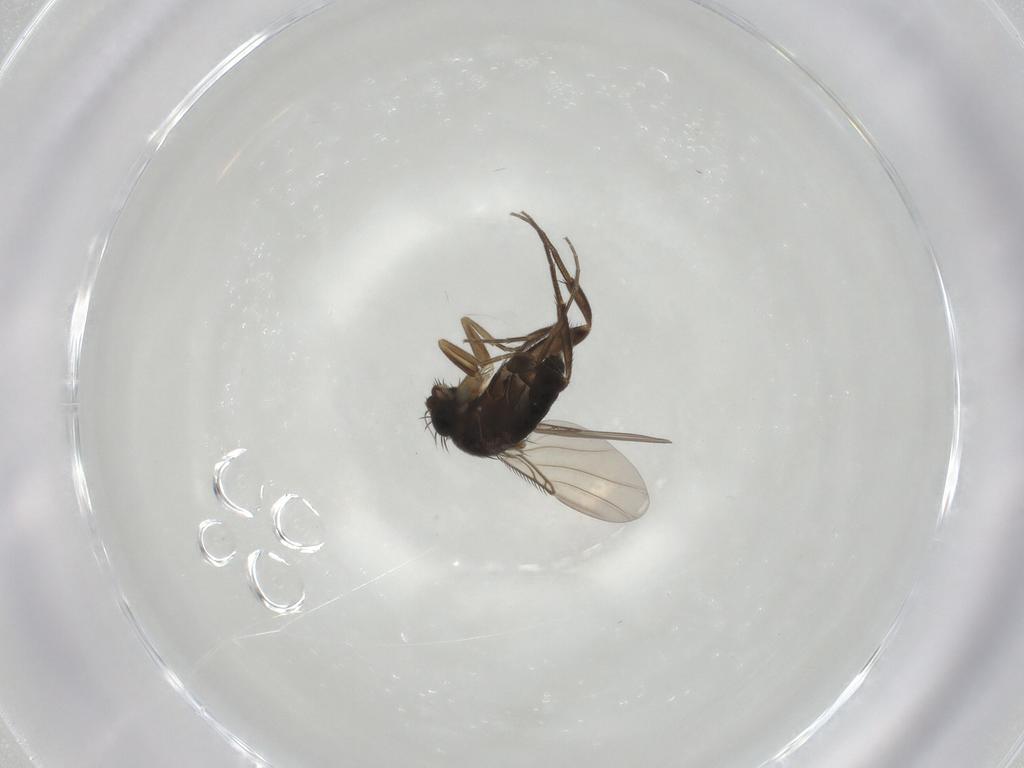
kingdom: Animalia
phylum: Arthropoda
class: Insecta
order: Diptera
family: Phoridae
